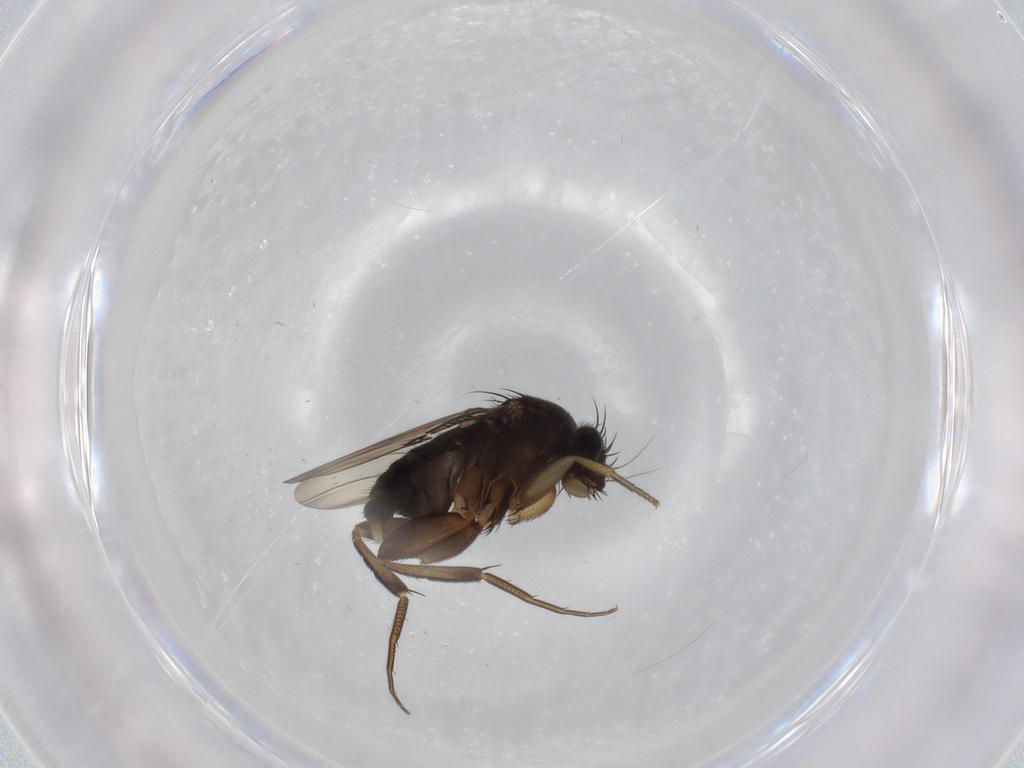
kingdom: Animalia
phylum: Arthropoda
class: Insecta
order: Diptera
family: Phoridae
